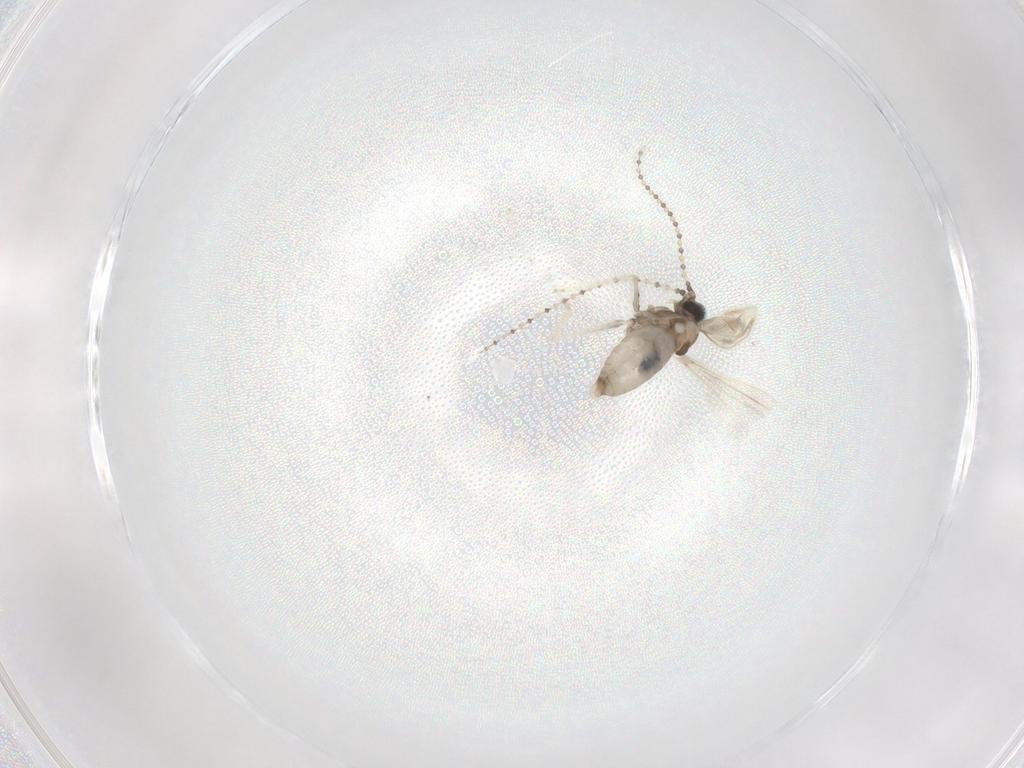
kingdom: Animalia
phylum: Arthropoda
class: Insecta
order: Diptera
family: Cecidomyiidae
